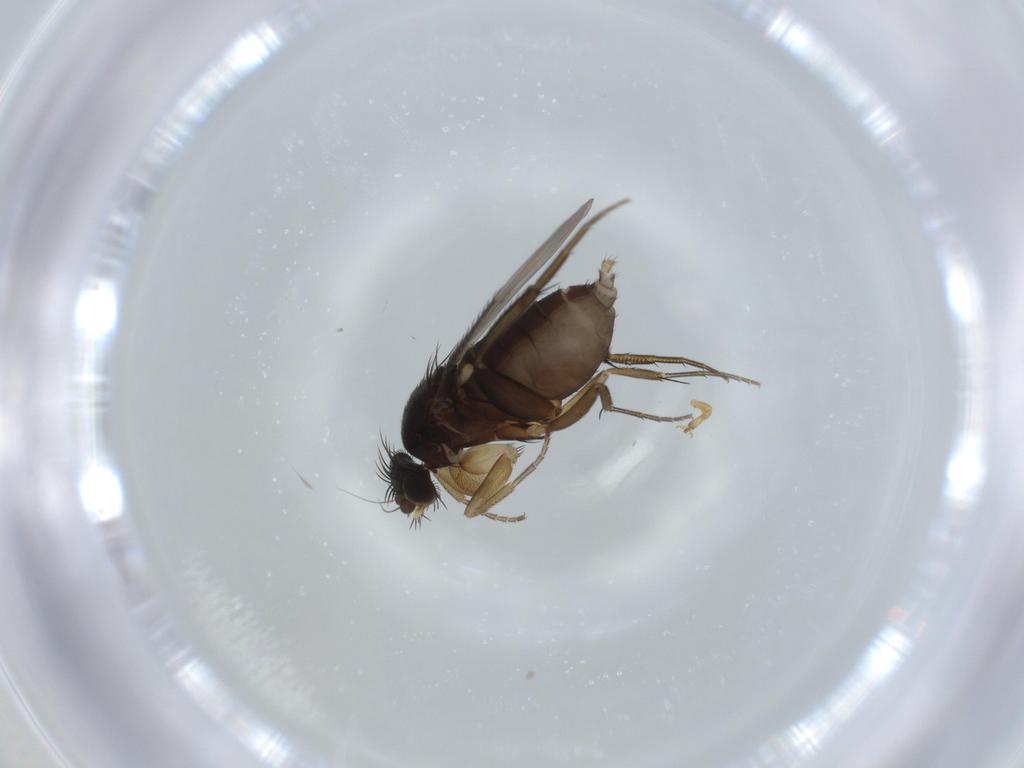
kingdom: Animalia
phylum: Arthropoda
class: Insecta
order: Diptera
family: Phoridae
